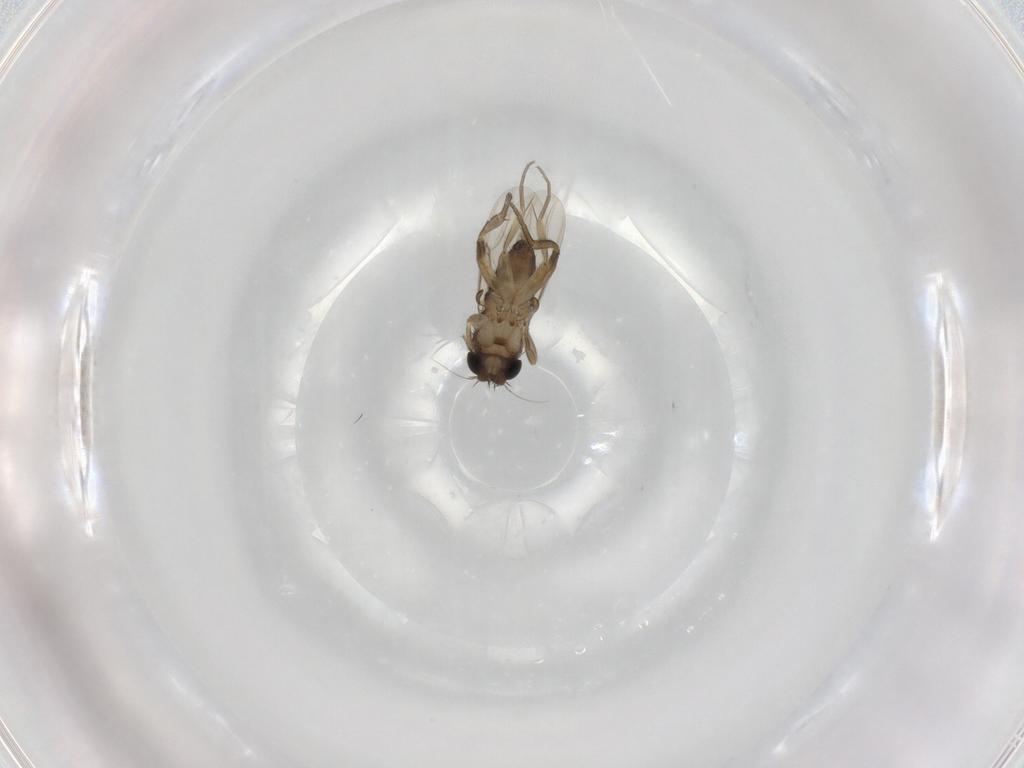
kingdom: Animalia
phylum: Arthropoda
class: Insecta
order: Diptera
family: Phoridae
